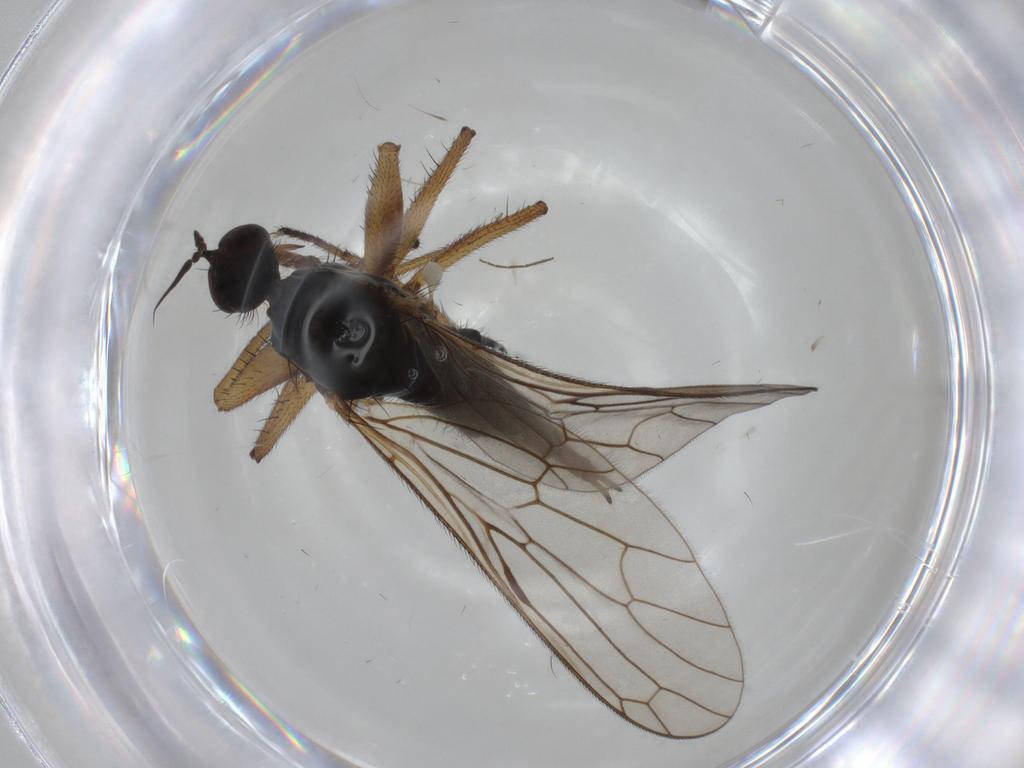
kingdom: Animalia
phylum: Arthropoda
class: Insecta
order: Diptera
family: Empididae
